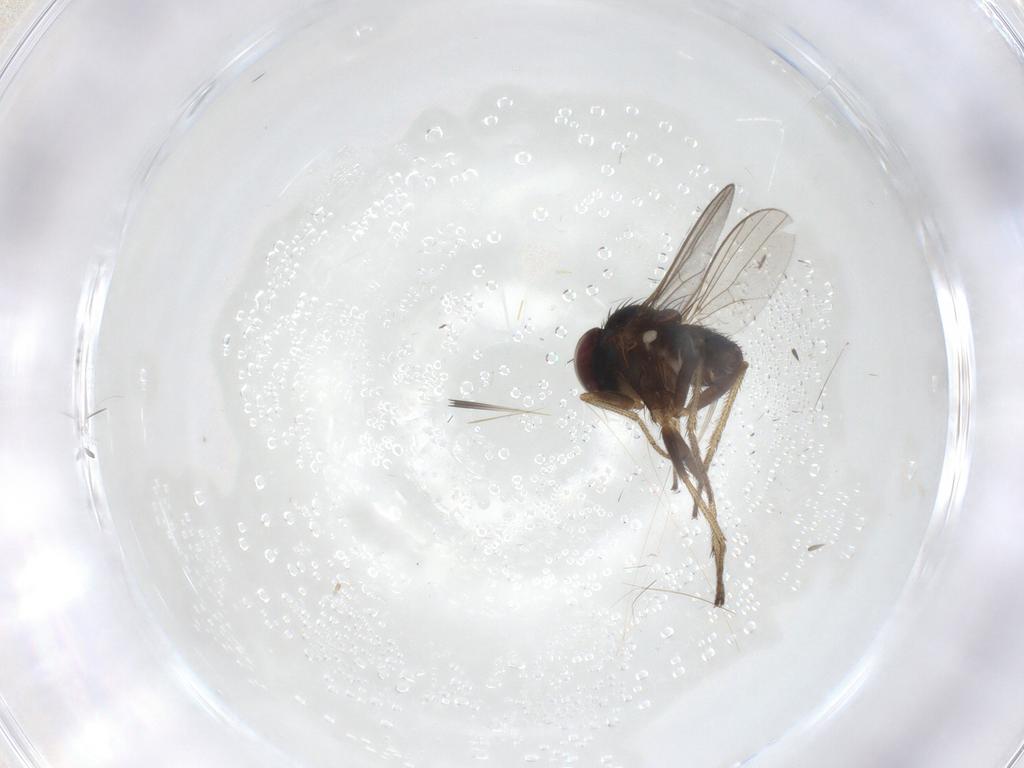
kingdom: Animalia
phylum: Arthropoda
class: Insecta
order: Diptera
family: Chironomidae
